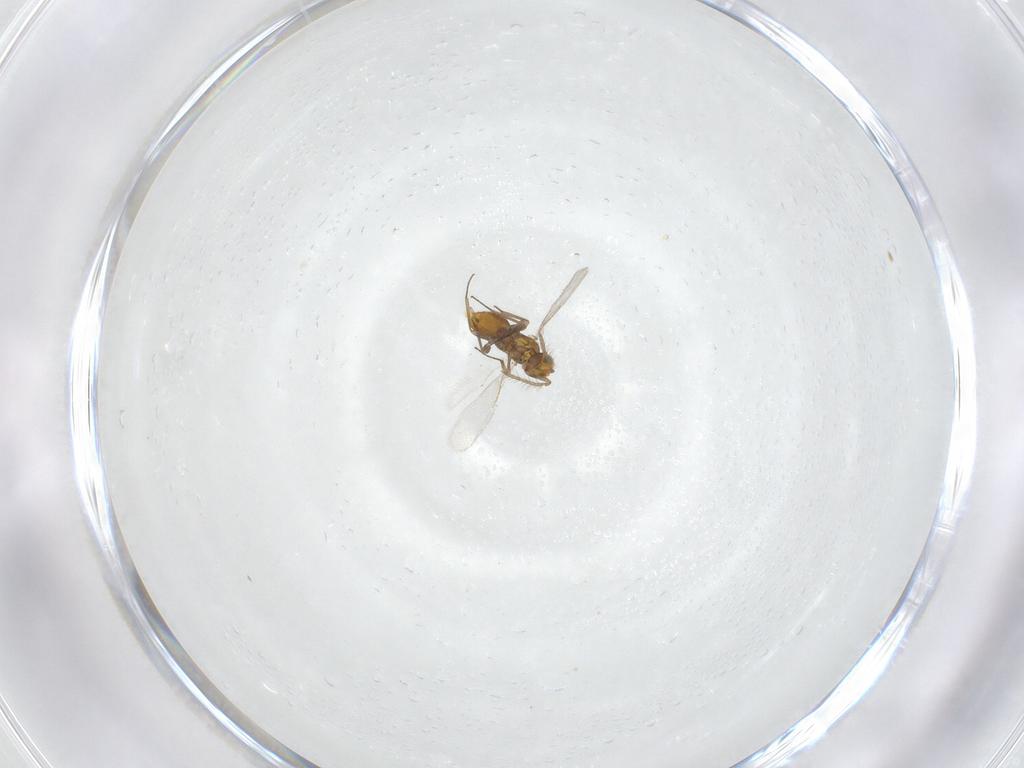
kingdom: Animalia
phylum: Arthropoda
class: Insecta
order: Hymenoptera
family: Aphelinidae
